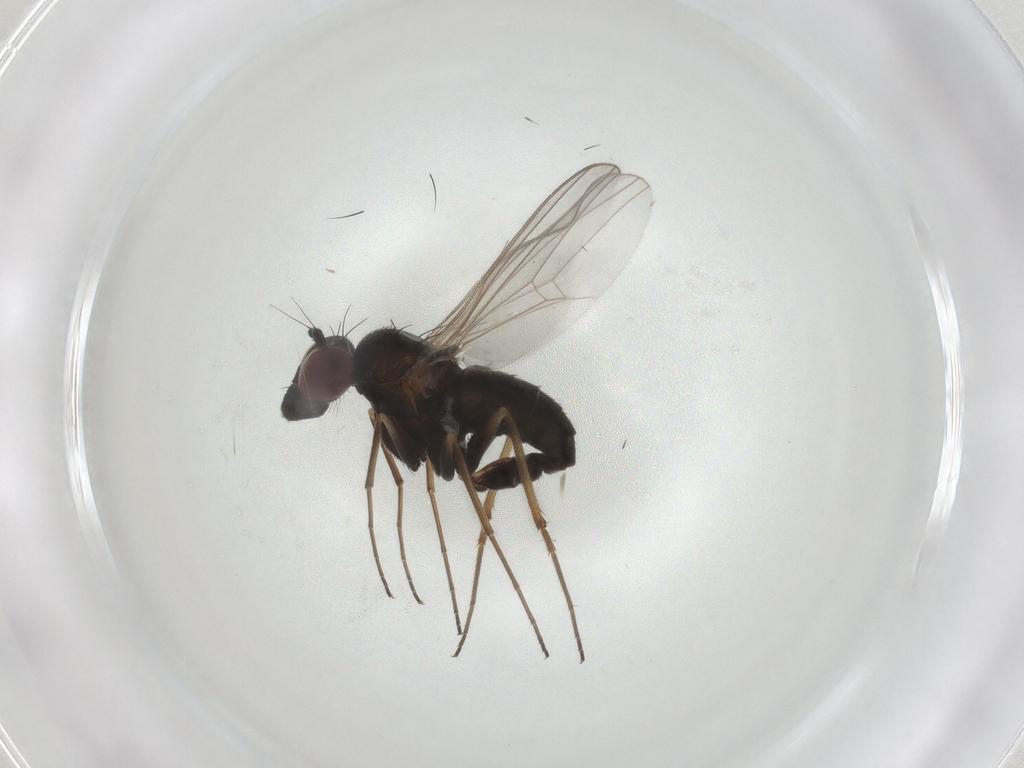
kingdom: Animalia
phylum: Arthropoda
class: Insecta
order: Diptera
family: Dolichopodidae
